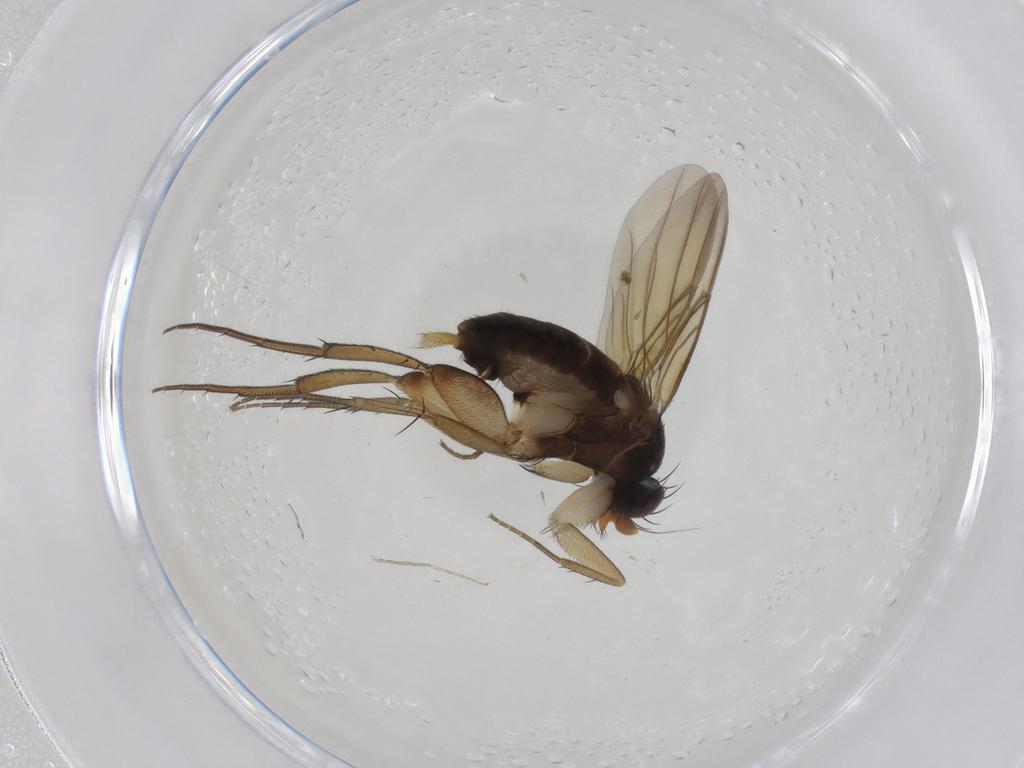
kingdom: Animalia
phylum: Arthropoda
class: Insecta
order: Diptera
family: Phoridae
